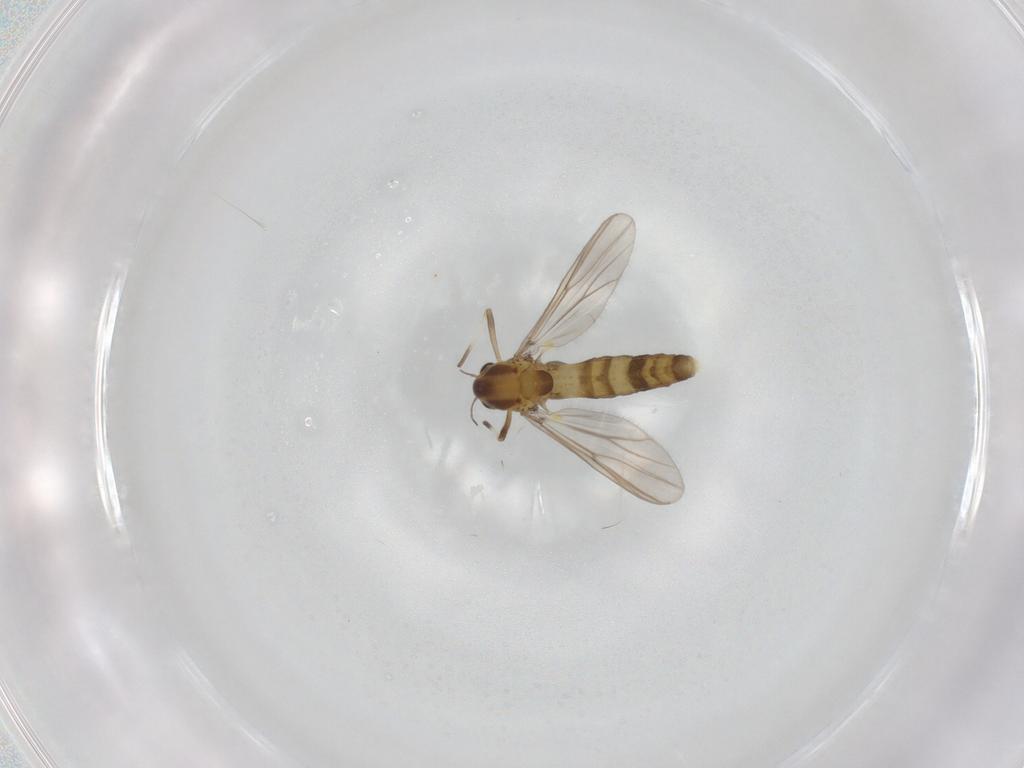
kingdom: Animalia
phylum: Arthropoda
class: Insecta
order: Diptera
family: Chironomidae
